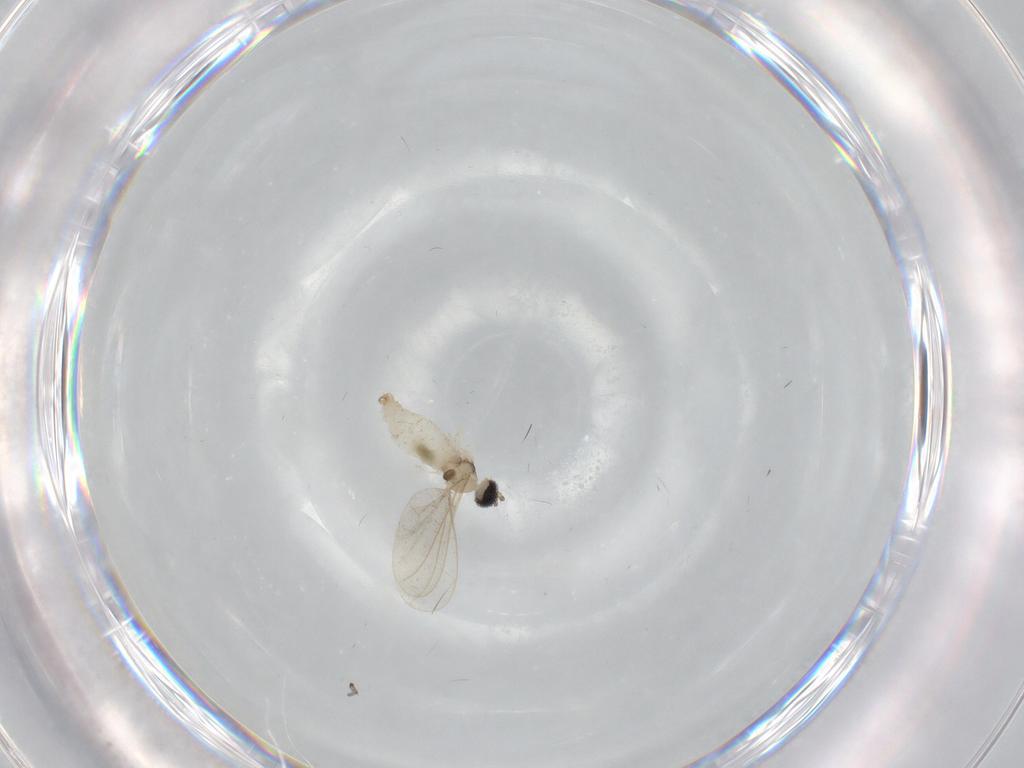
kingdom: Animalia
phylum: Arthropoda
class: Insecta
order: Diptera
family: Cecidomyiidae
